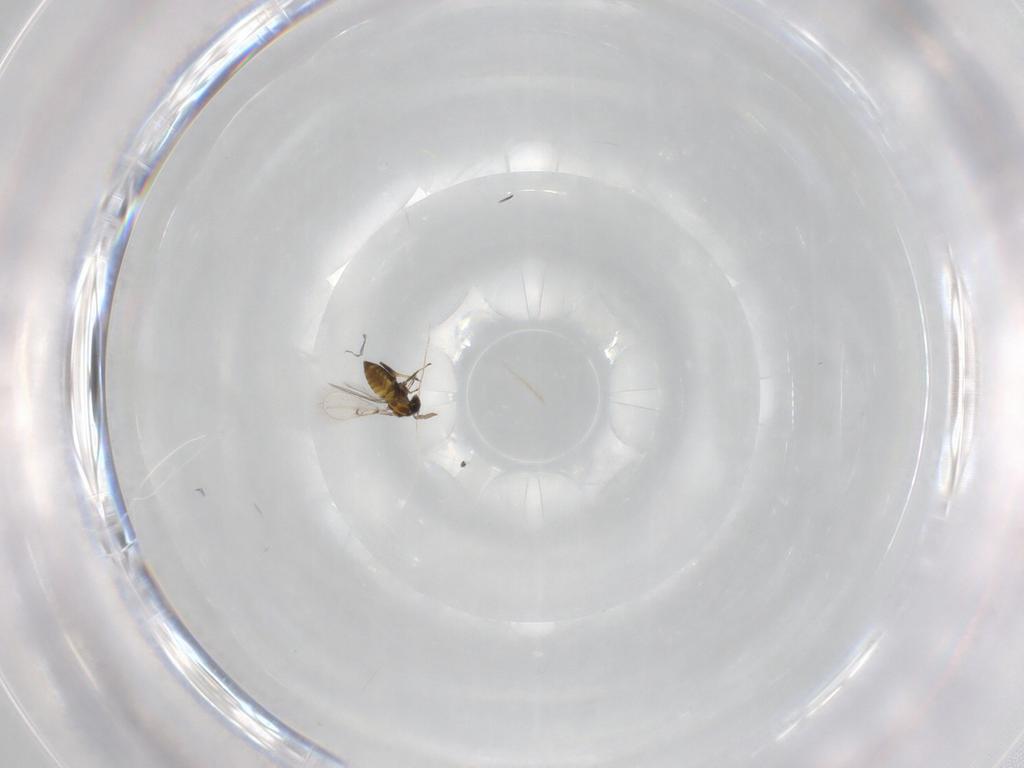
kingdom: Animalia
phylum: Arthropoda
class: Insecta
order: Hymenoptera
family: Trichogrammatidae
